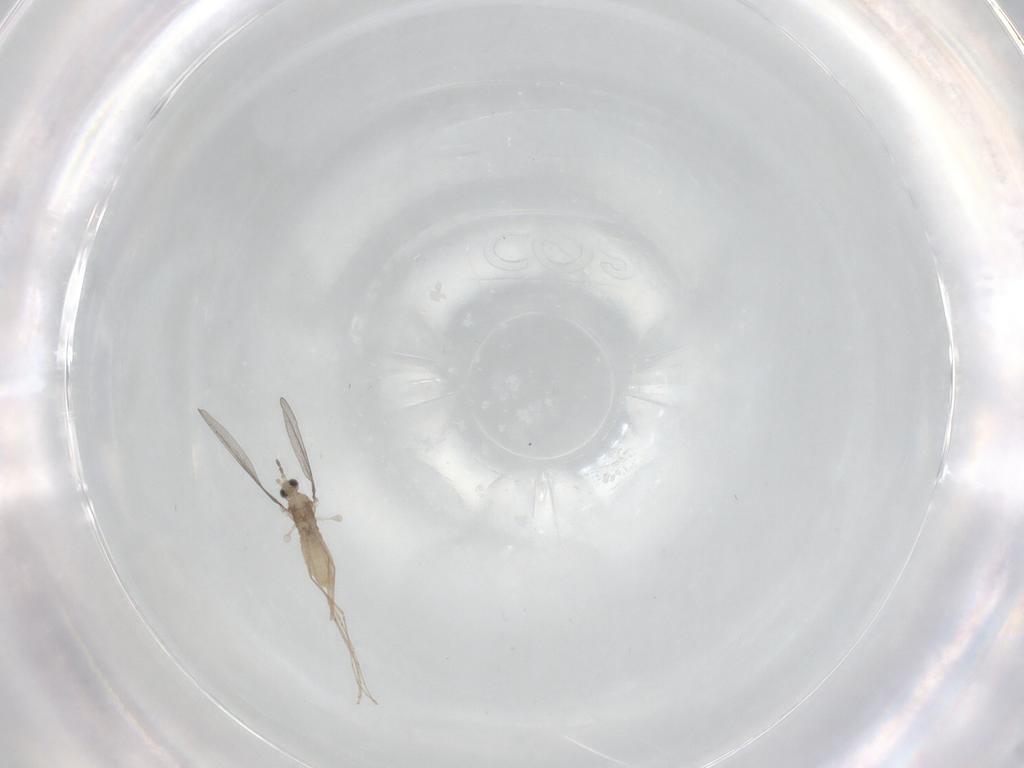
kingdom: Animalia
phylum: Arthropoda
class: Insecta
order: Diptera
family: Cecidomyiidae
